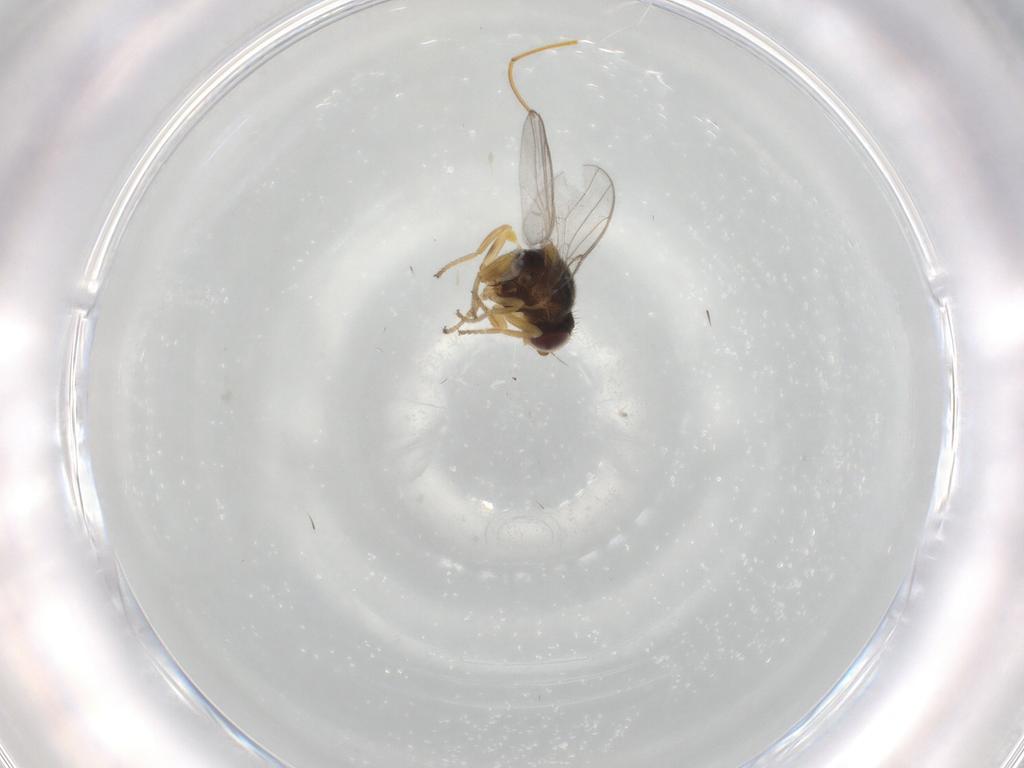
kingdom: Animalia
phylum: Arthropoda
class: Insecta
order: Diptera
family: Chloropidae
